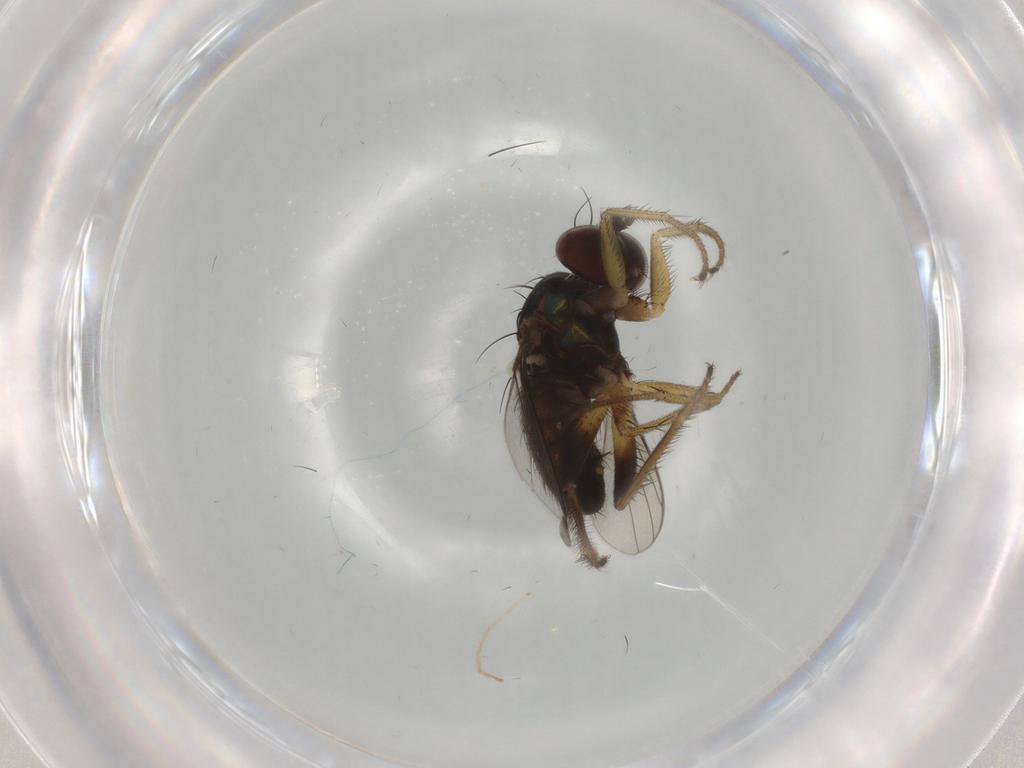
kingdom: Animalia
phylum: Arthropoda
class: Insecta
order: Diptera
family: Dolichopodidae
